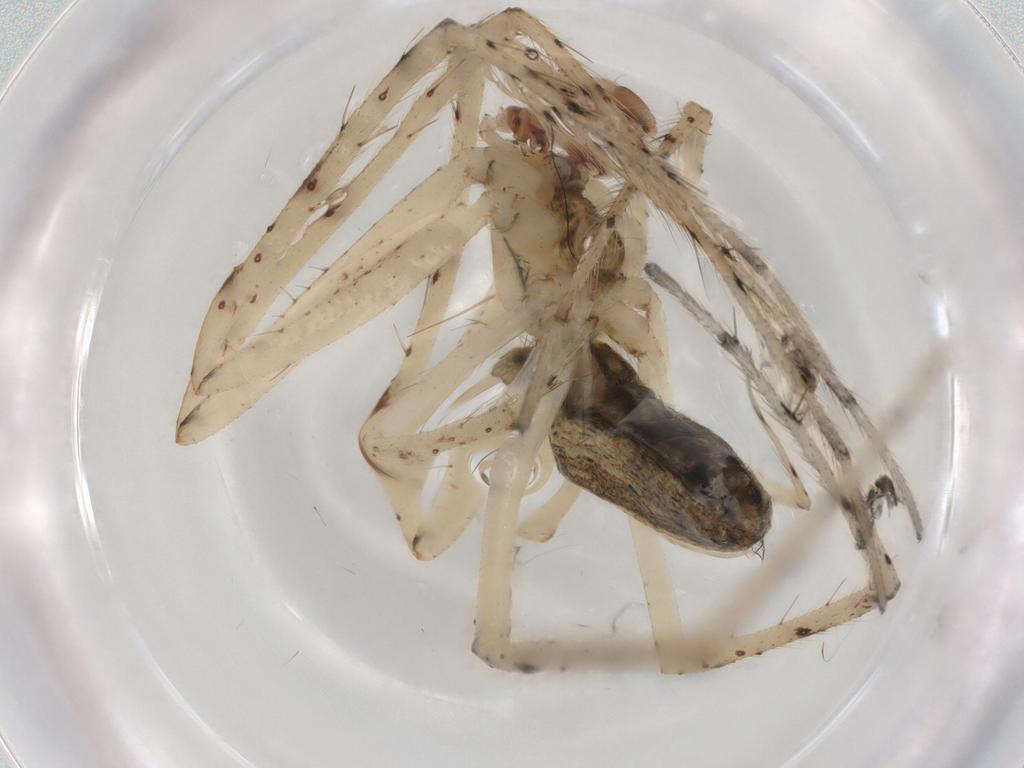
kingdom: Animalia
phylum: Arthropoda
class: Arachnida
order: Araneae
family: Araneidae
